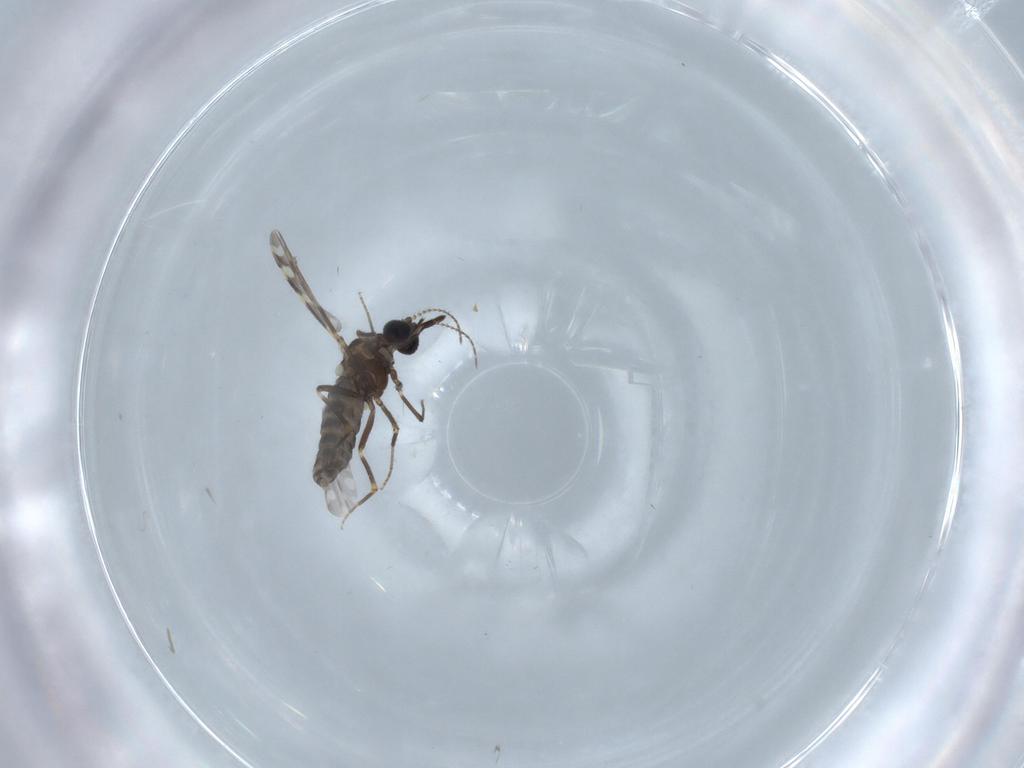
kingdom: Animalia
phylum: Arthropoda
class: Insecta
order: Diptera
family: Ceratopogonidae
